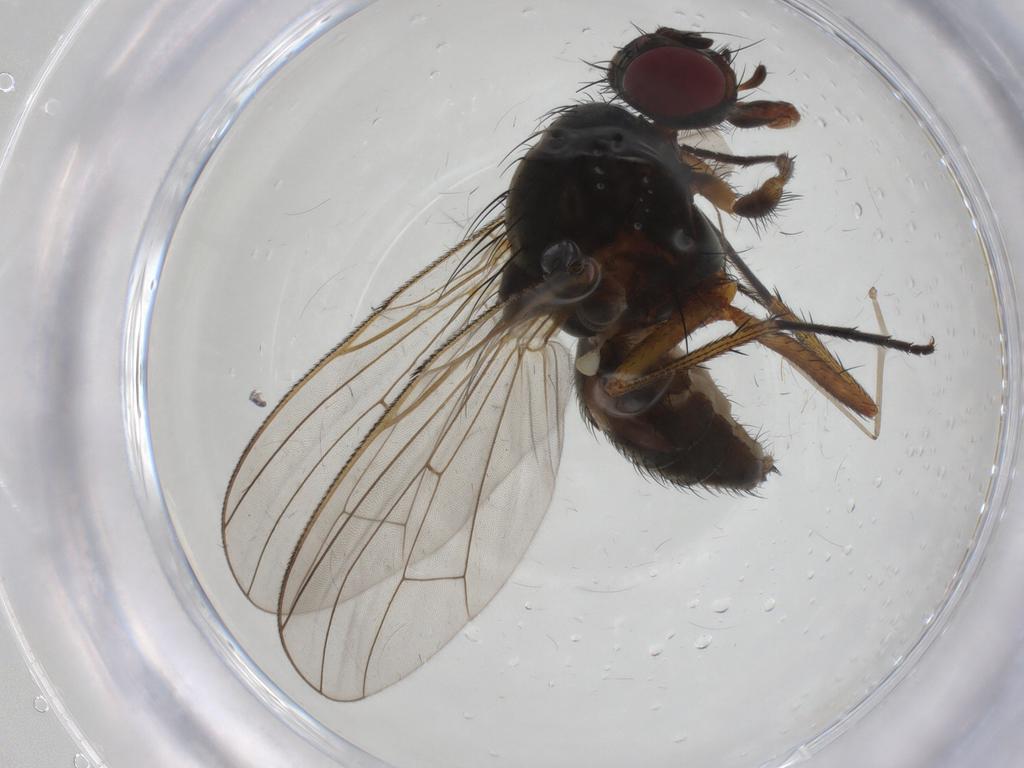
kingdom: Animalia
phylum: Arthropoda
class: Insecta
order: Diptera
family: Anthomyiidae
